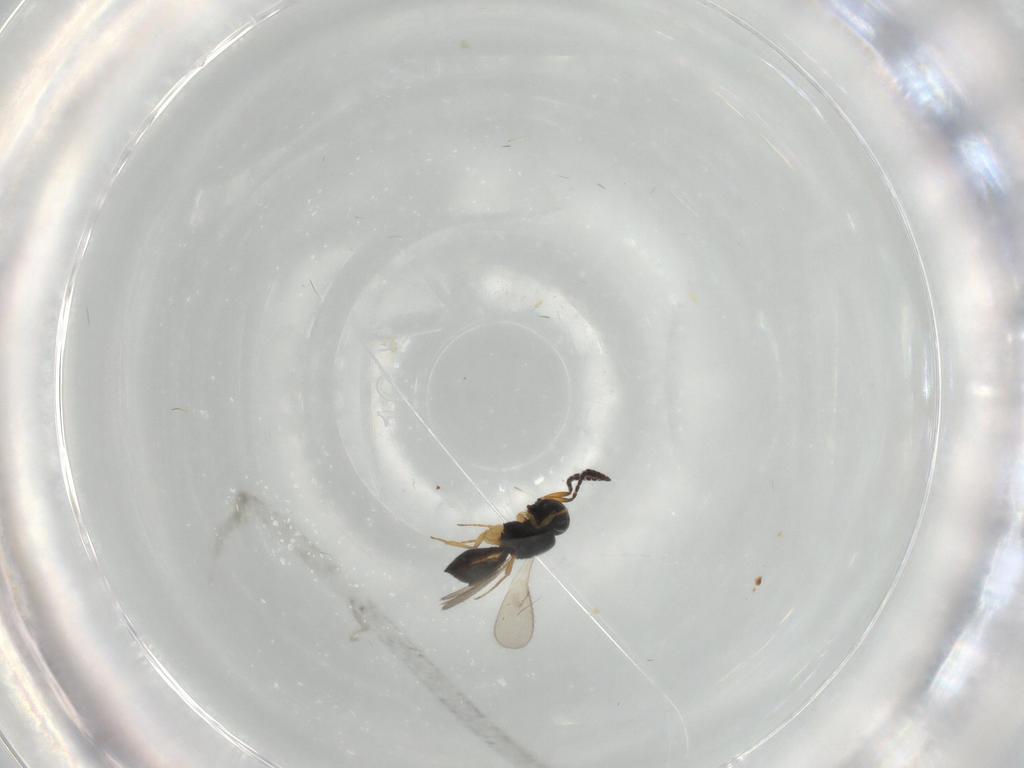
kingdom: Animalia
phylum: Arthropoda
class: Insecta
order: Hymenoptera
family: Scelionidae
